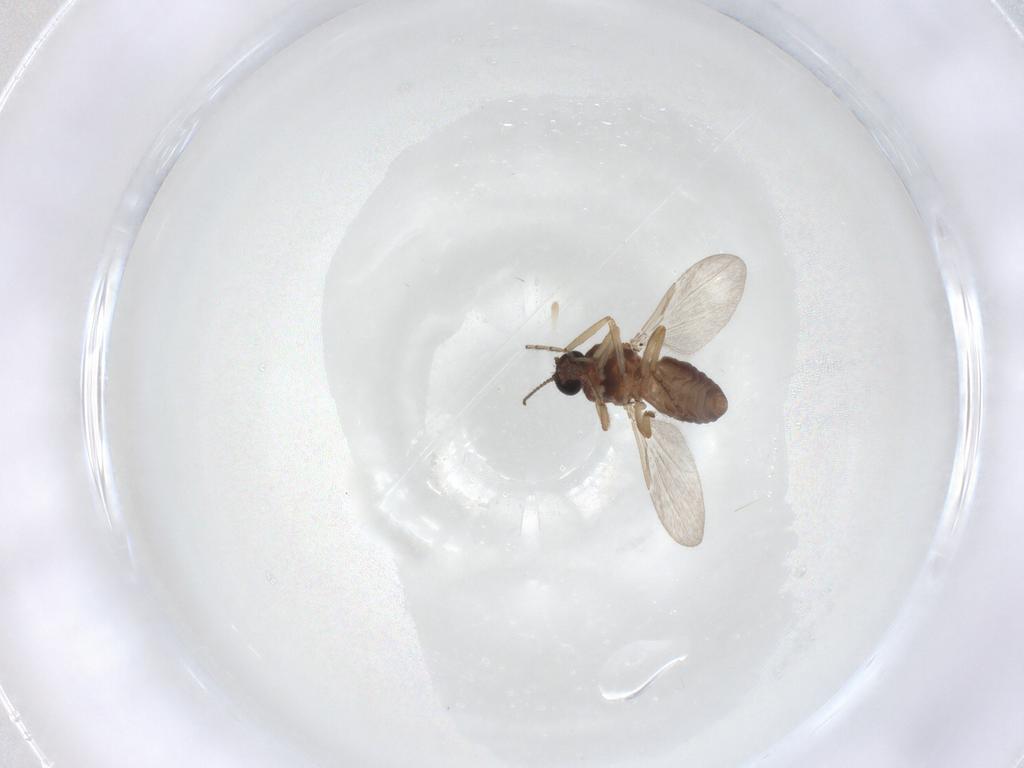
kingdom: Animalia
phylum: Arthropoda
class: Insecta
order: Diptera
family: Ceratopogonidae
